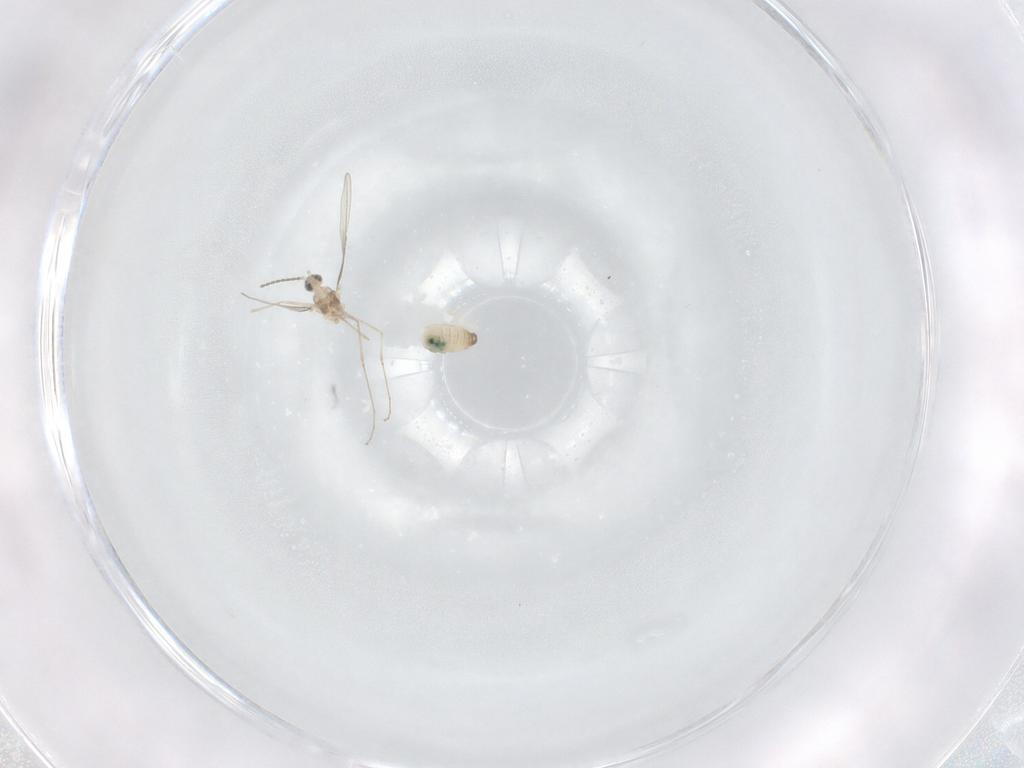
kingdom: Animalia
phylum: Arthropoda
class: Insecta
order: Diptera
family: Cecidomyiidae
